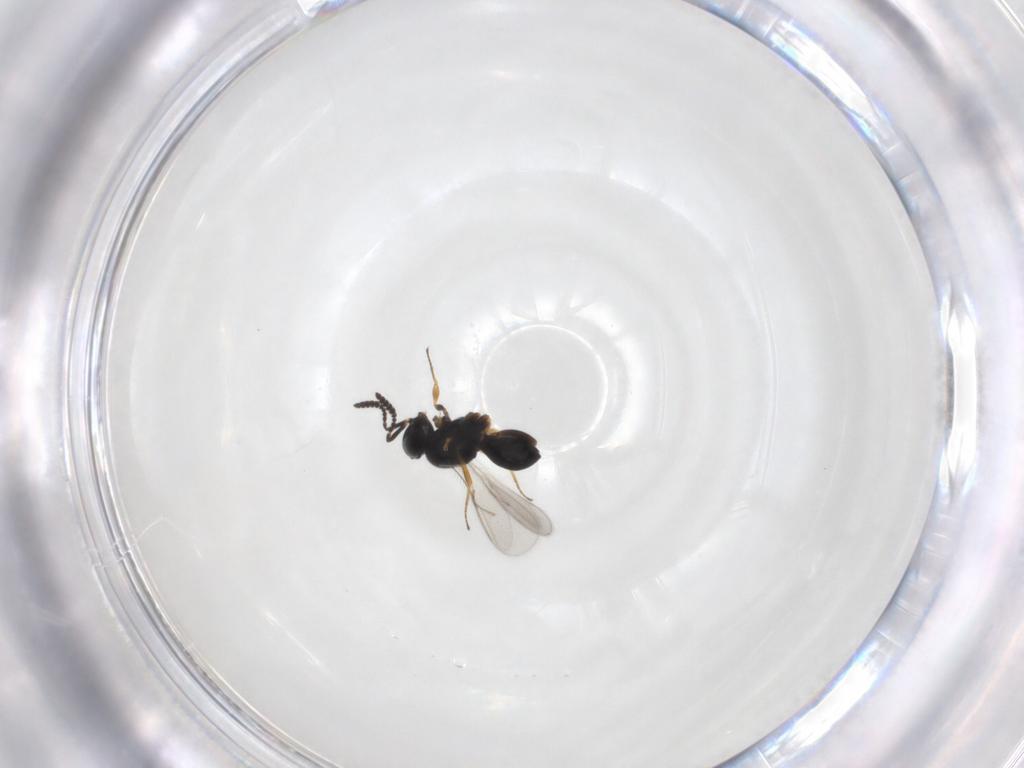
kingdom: Animalia
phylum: Arthropoda
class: Insecta
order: Hymenoptera
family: Scelionidae
